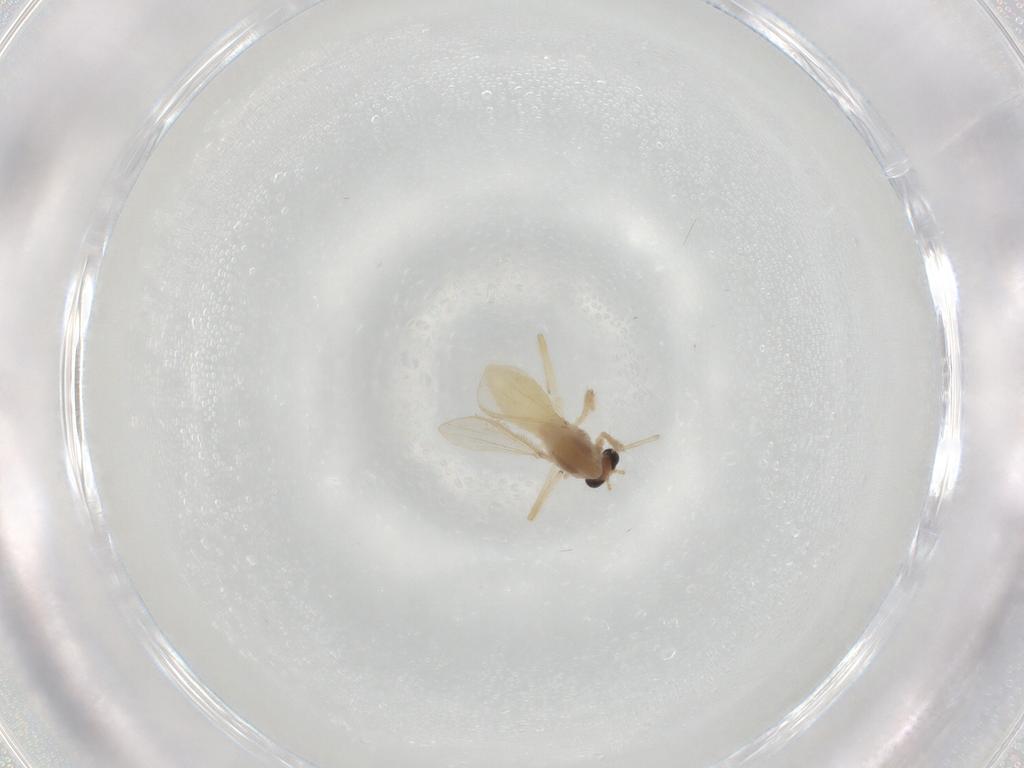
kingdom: Animalia
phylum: Arthropoda
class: Insecta
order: Diptera
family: Chironomidae
